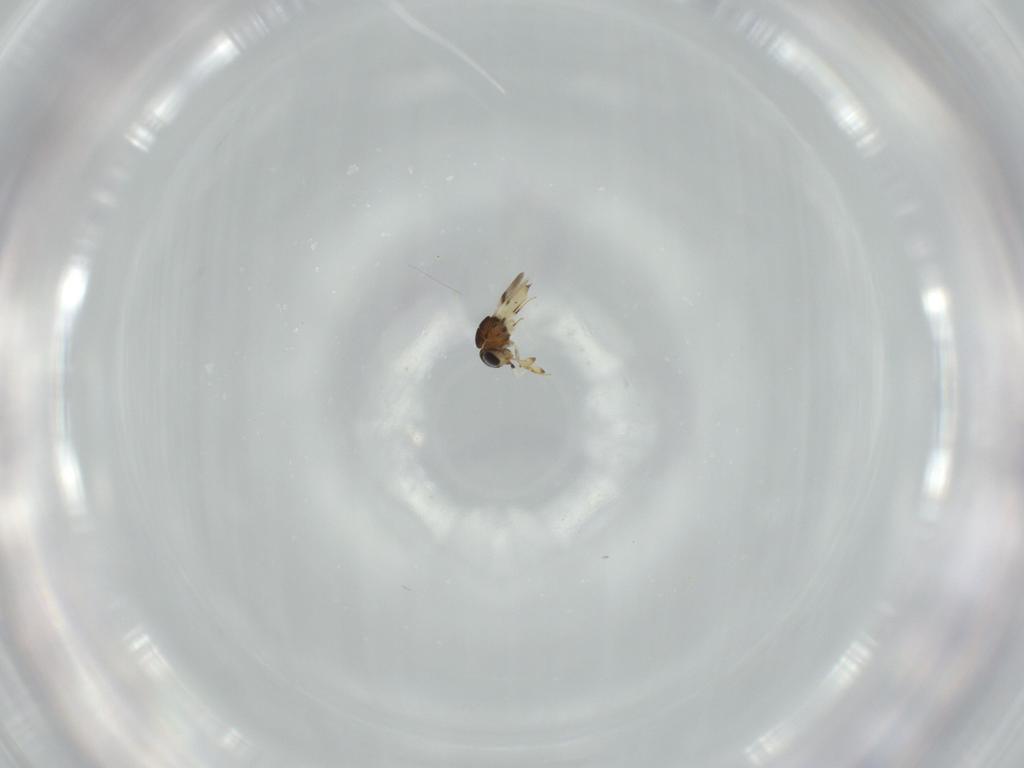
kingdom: Animalia
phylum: Arthropoda
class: Insecta
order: Hymenoptera
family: Scelionidae
